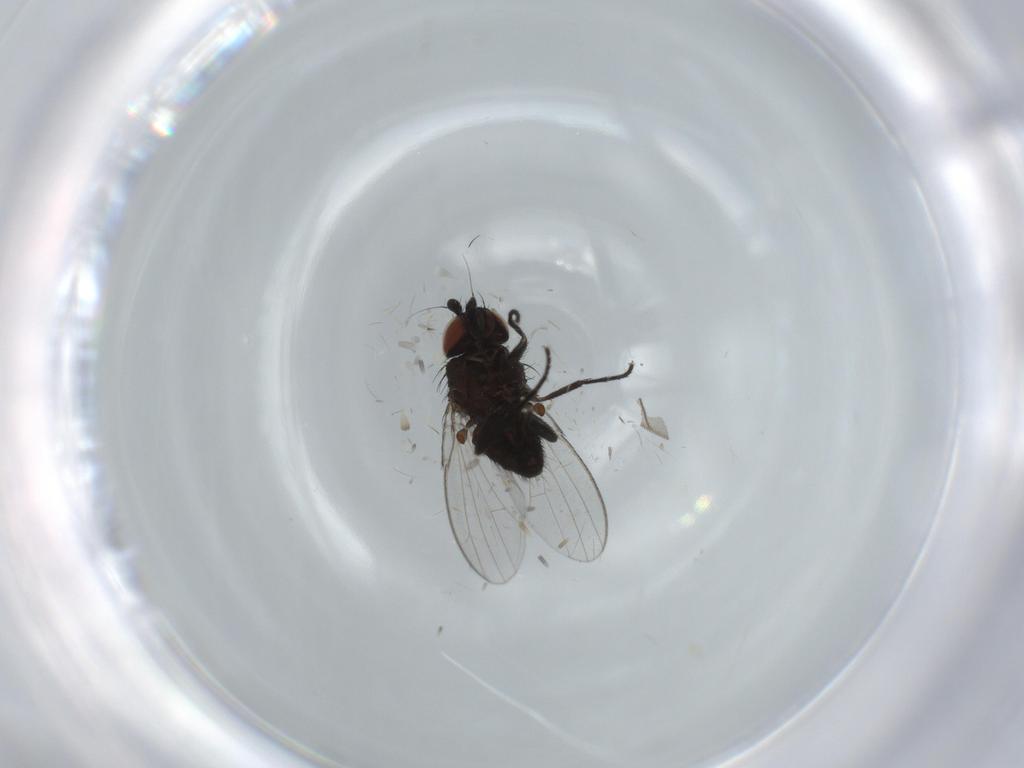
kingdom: Animalia
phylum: Arthropoda
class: Insecta
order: Diptera
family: Milichiidae
